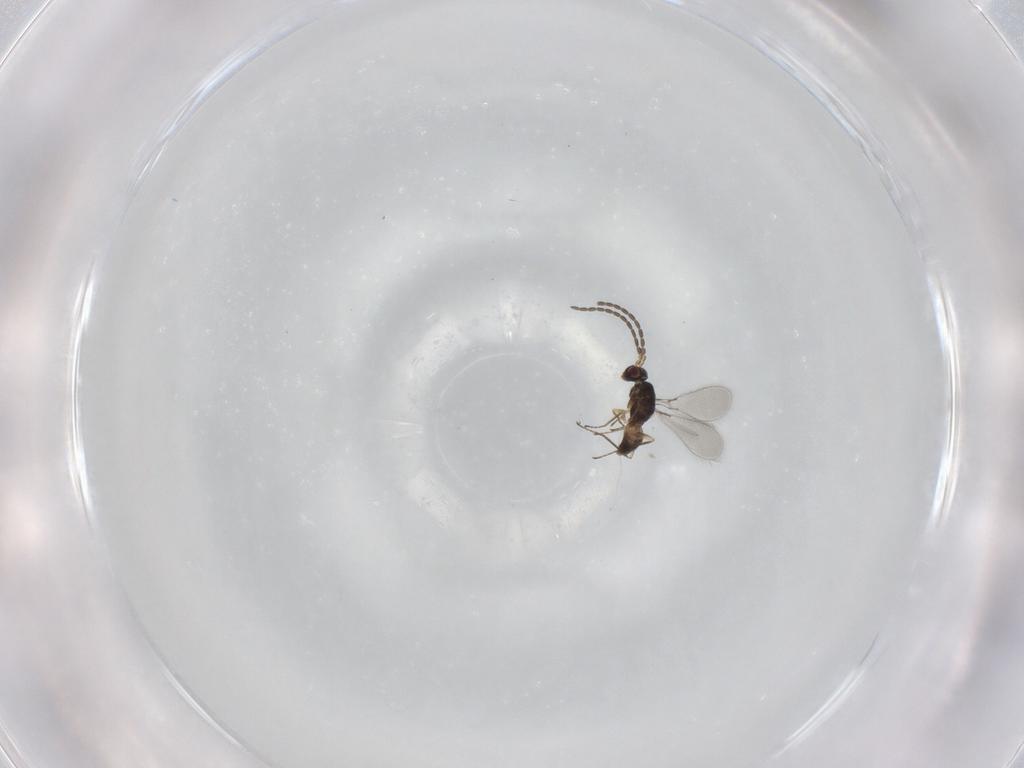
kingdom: Animalia
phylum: Arthropoda
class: Insecta
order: Hymenoptera
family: Mymaridae
